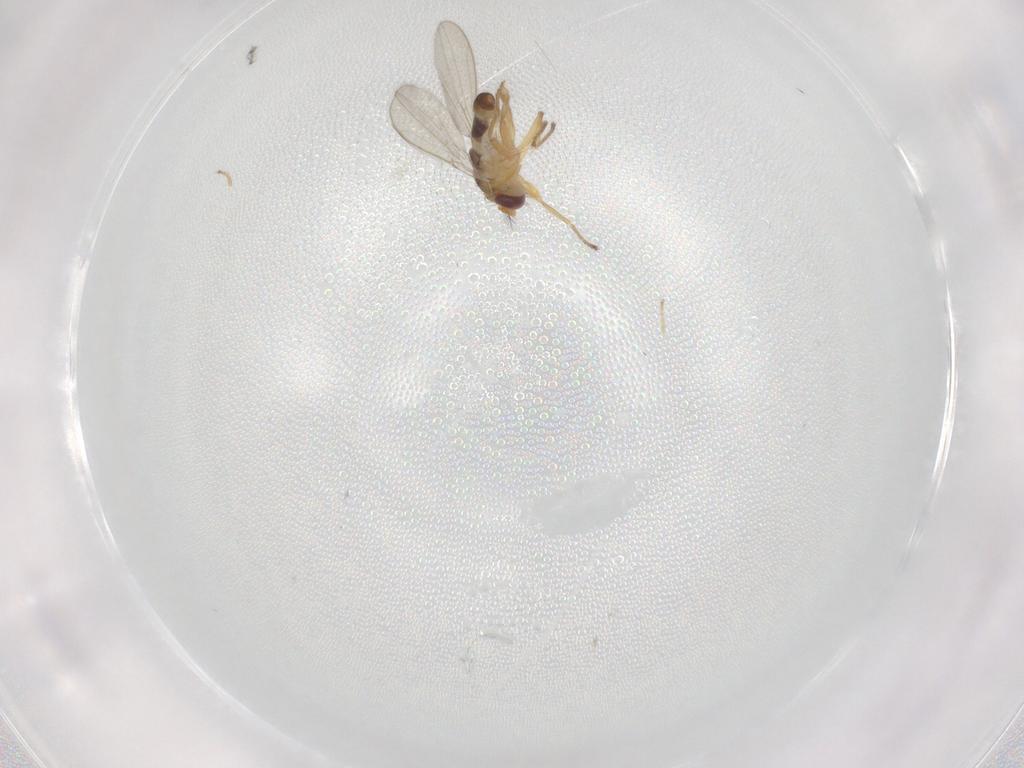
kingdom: Animalia
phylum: Arthropoda
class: Insecta
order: Diptera
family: Periscelididae
